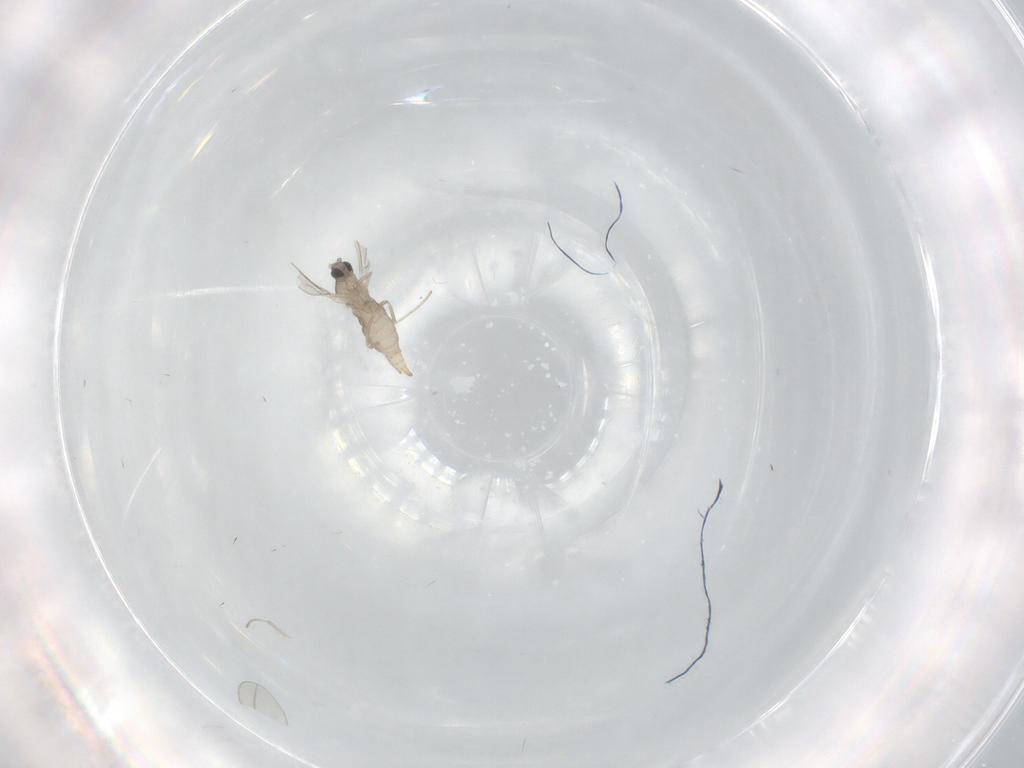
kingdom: Animalia
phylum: Arthropoda
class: Insecta
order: Diptera
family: Cecidomyiidae
